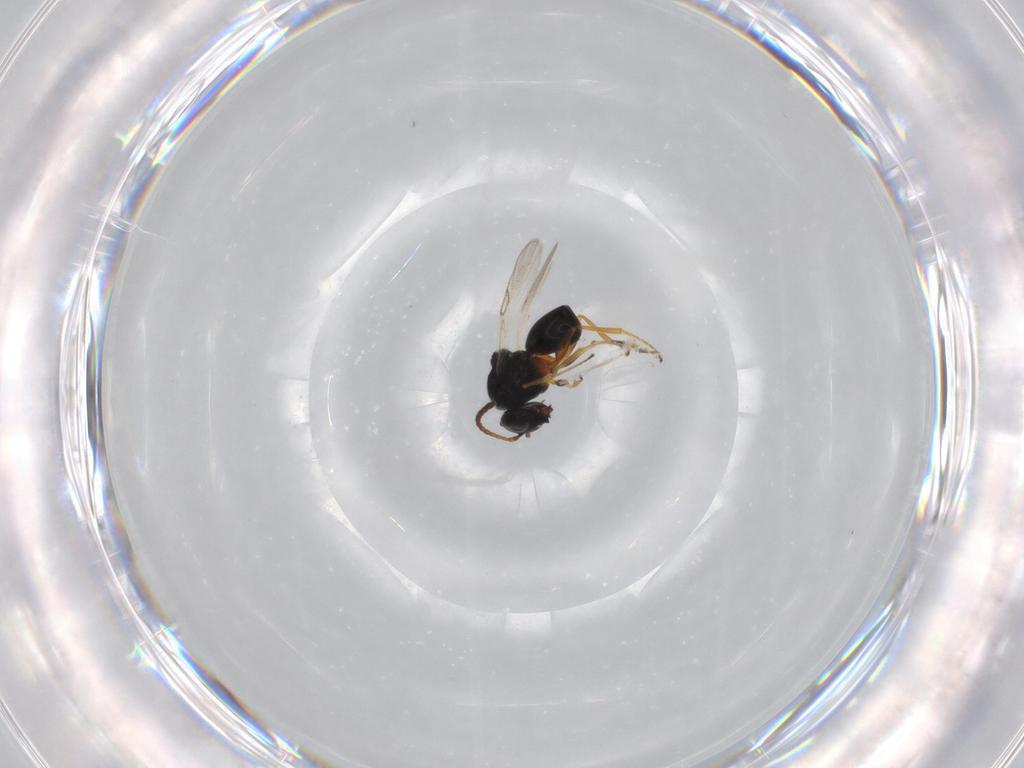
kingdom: Animalia
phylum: Arthropoda
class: Insecta
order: Hymenoptera
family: Figitidae
